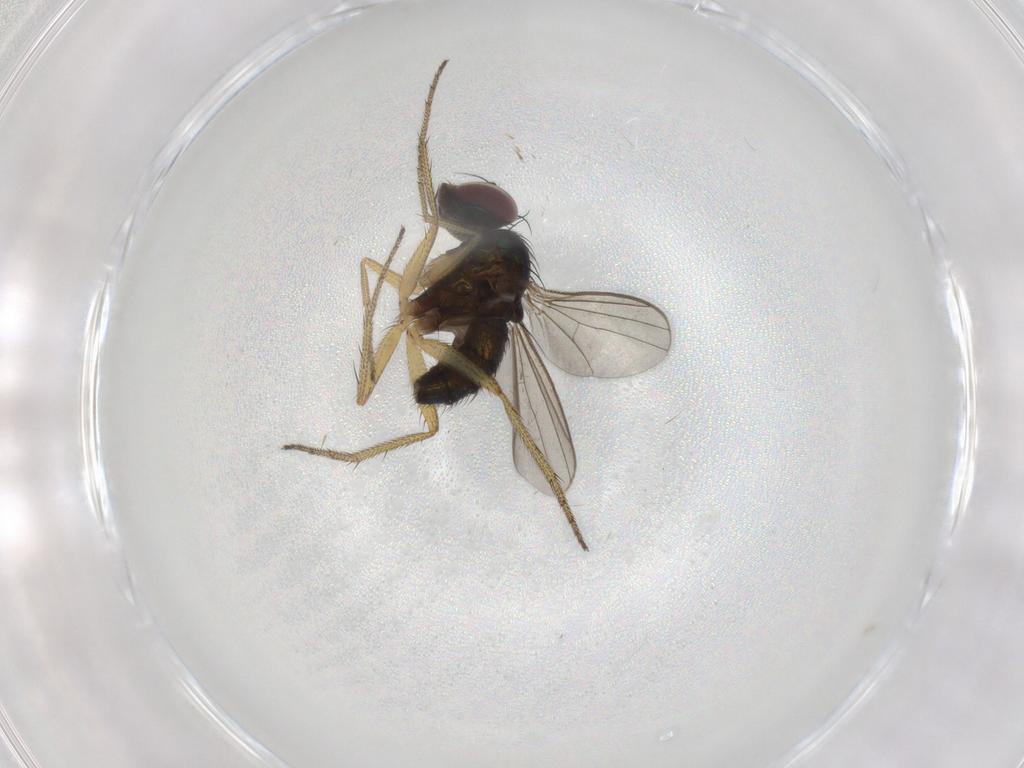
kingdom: Animalia
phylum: Arthropoda
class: Insecta
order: Diptera
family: Dolichopodidae
